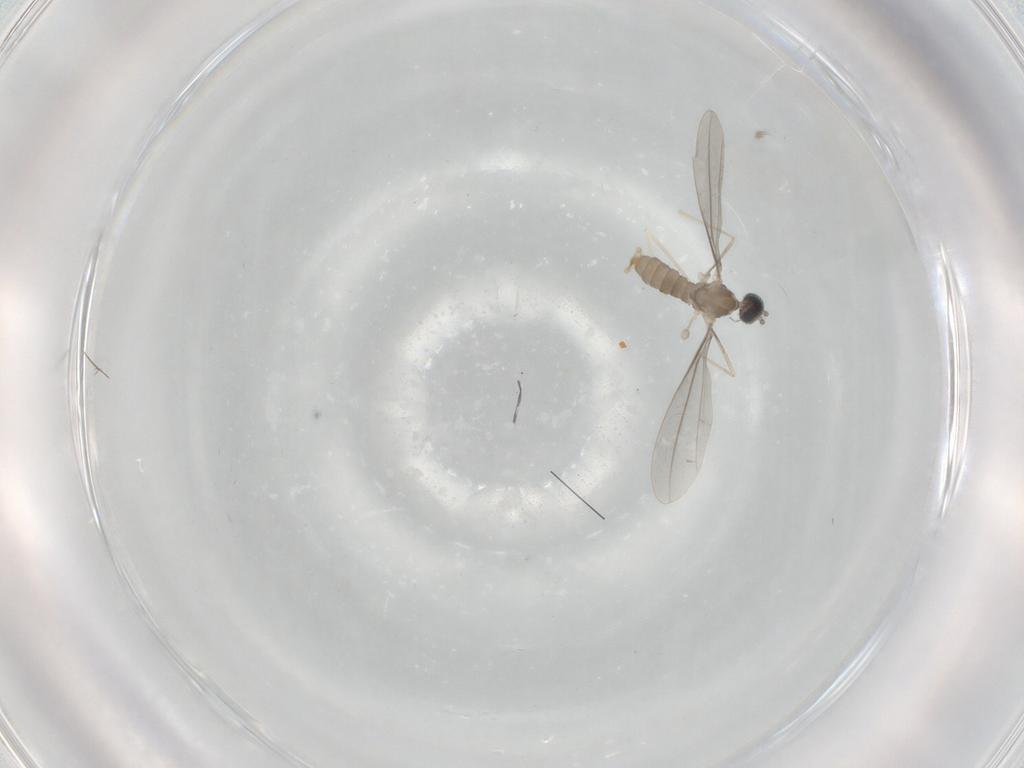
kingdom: Animalia
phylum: Arthropoda
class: Insecta
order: Diptera
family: Cecidomyiidae
